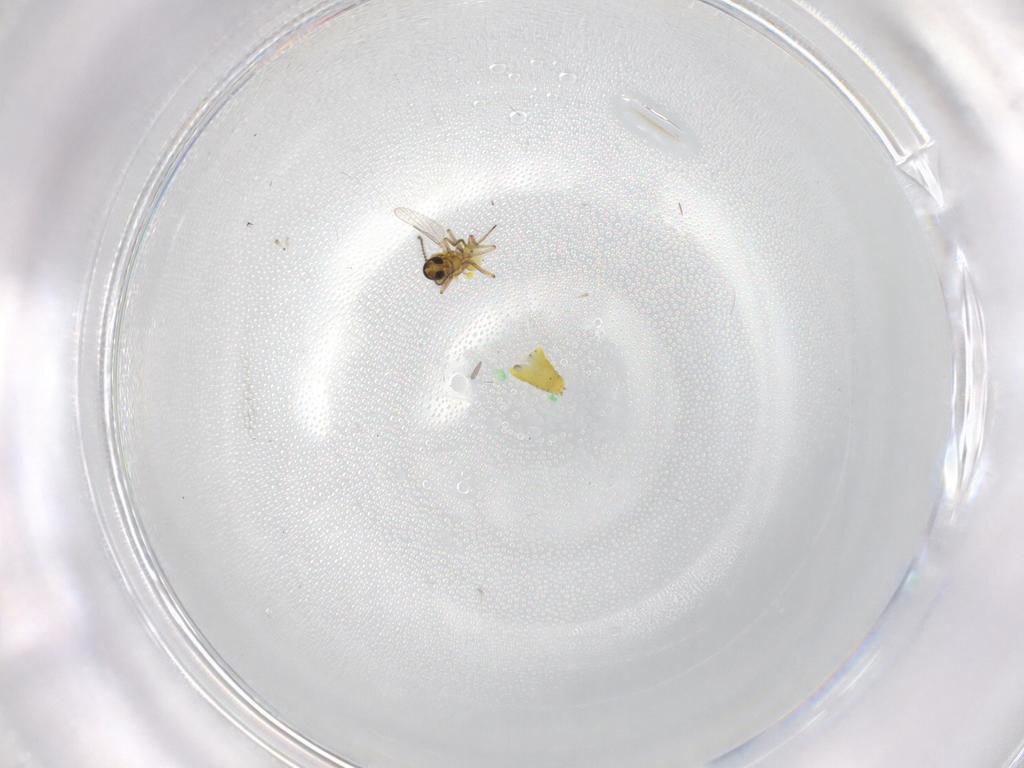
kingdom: Animalia
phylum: Arthropoda
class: Insecta
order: Diptera
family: Ceratopogonidae
